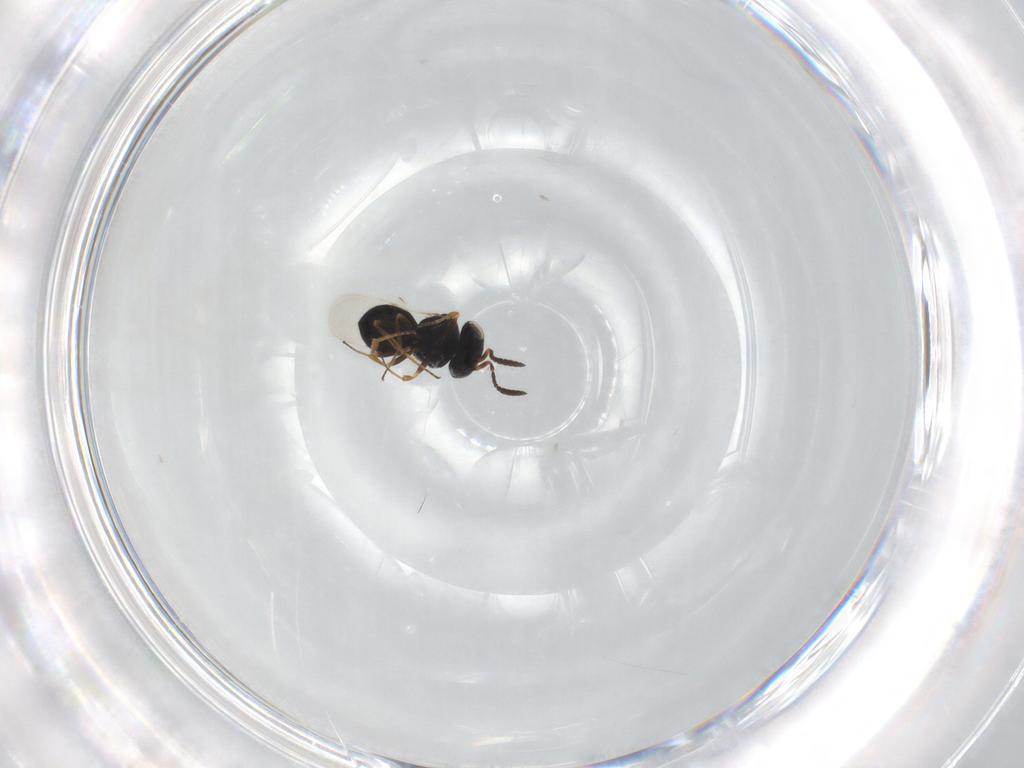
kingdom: Animalia
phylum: Arthropoda
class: Insecta
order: Hymenoptera
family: Scelionidae
